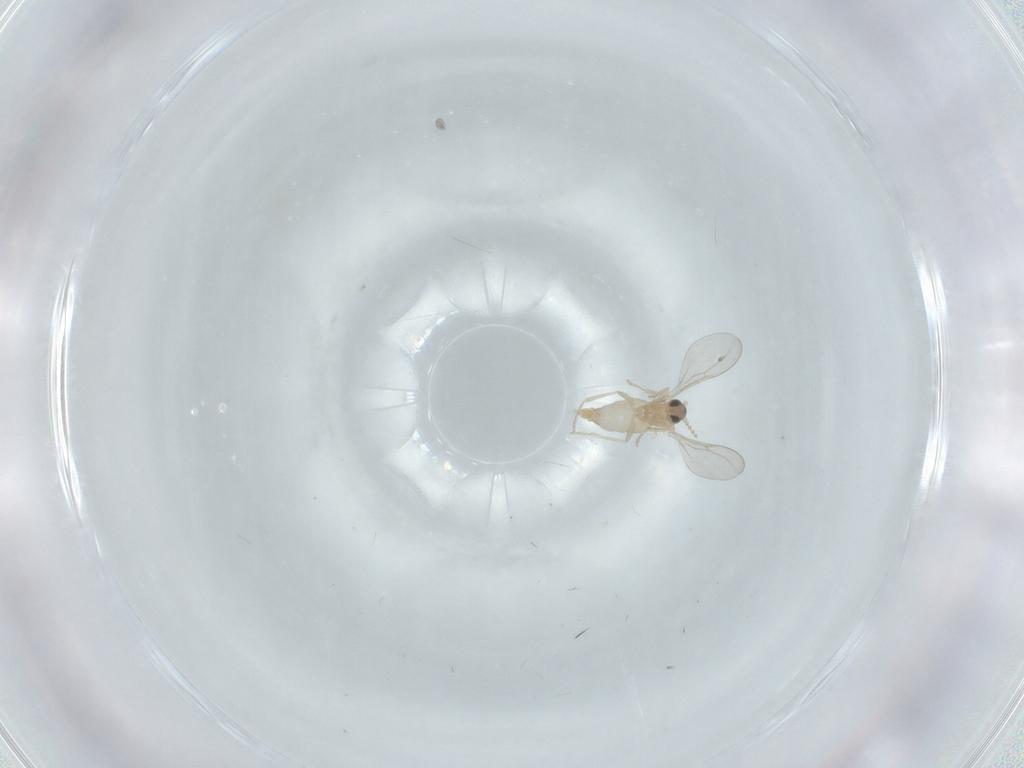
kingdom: Animalia
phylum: Arthropoda
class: Insecta
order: Diptera
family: Cecidomyiidae
